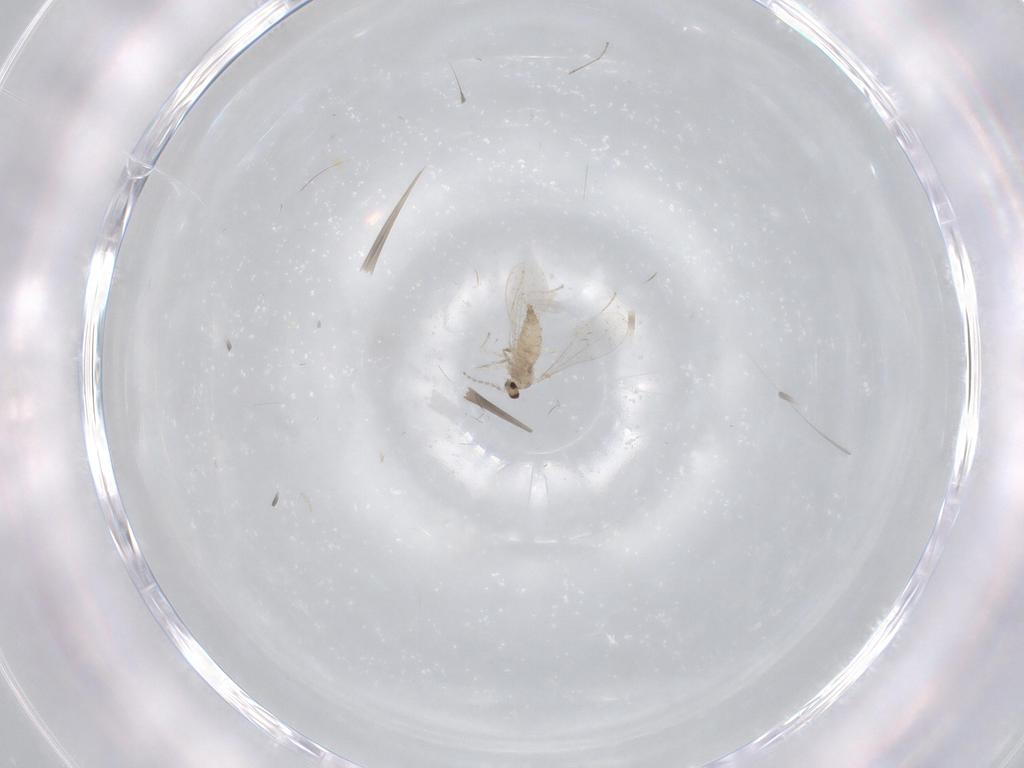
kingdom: Animalia
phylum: Arthropoda
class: Insecta
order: Diptera
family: Cecidomyiidae
